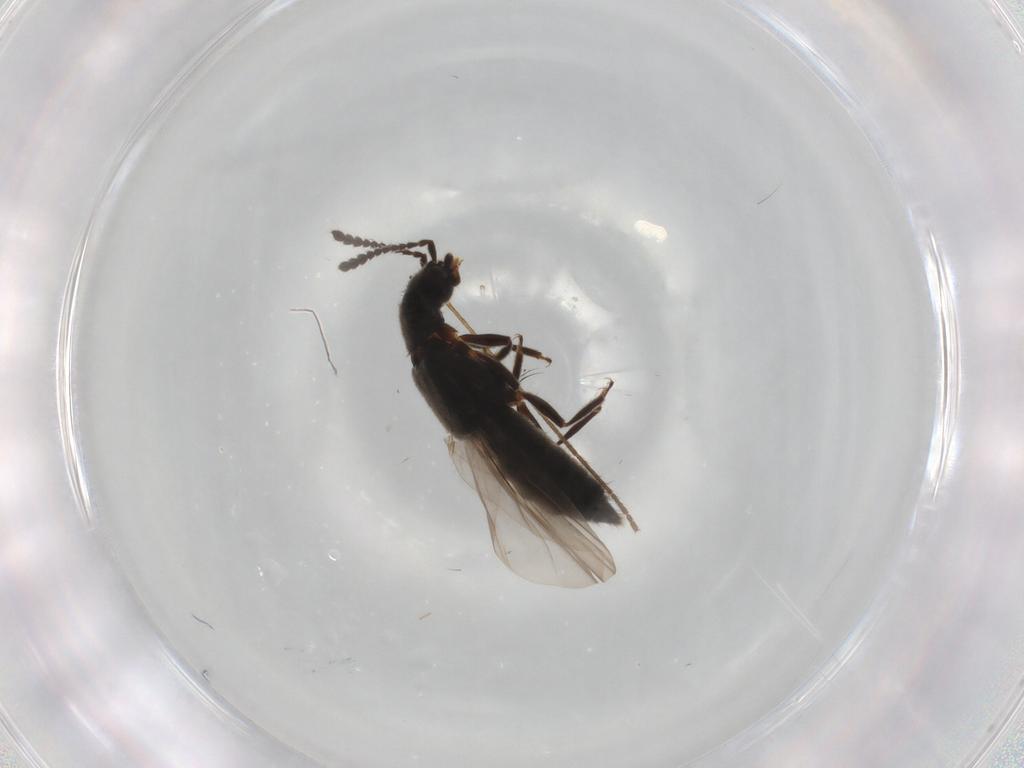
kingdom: Animalia
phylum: Arthropoda
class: Insecta
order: Coleoptera
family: Staphylinidae
